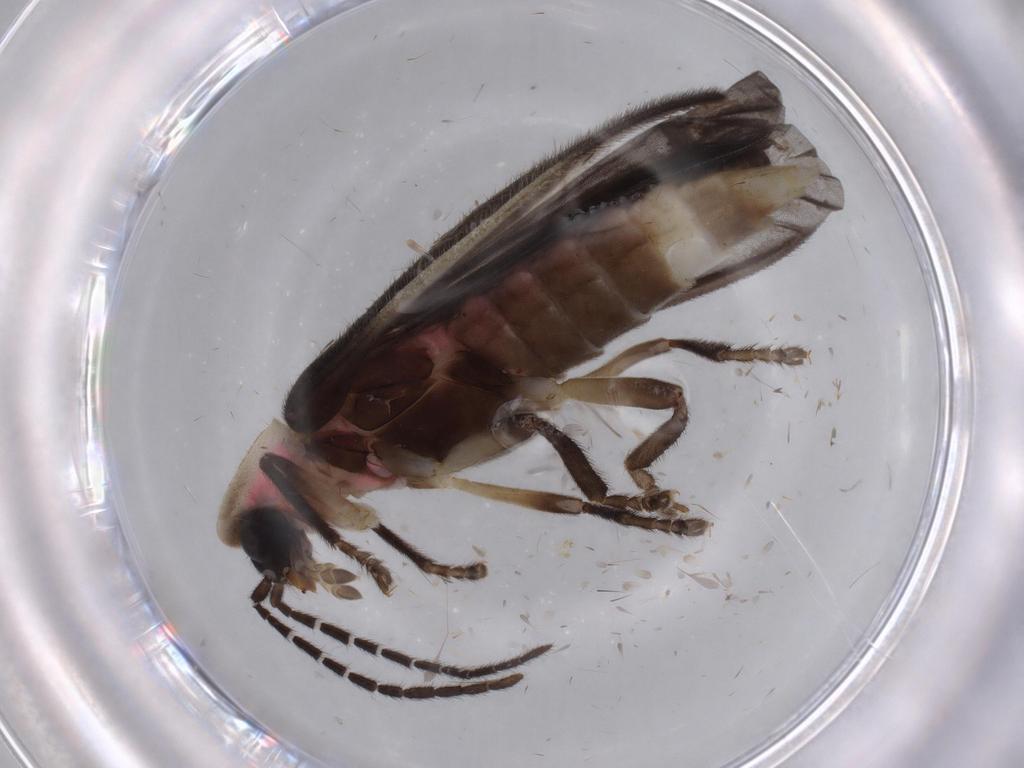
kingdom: Animalia
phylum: Arthropoda
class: Insecta
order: Coleoptera
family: Lampyridae
